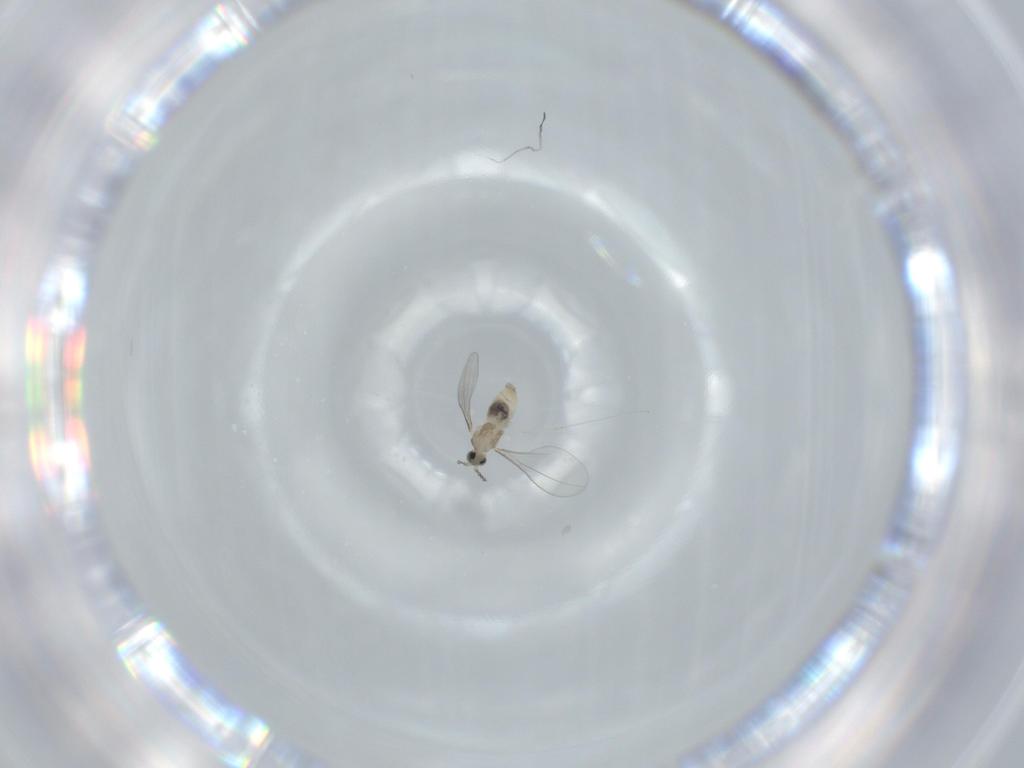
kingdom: Animalia
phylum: Arthropoda
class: Insecta
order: Diptera
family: Cecidomyiidae
